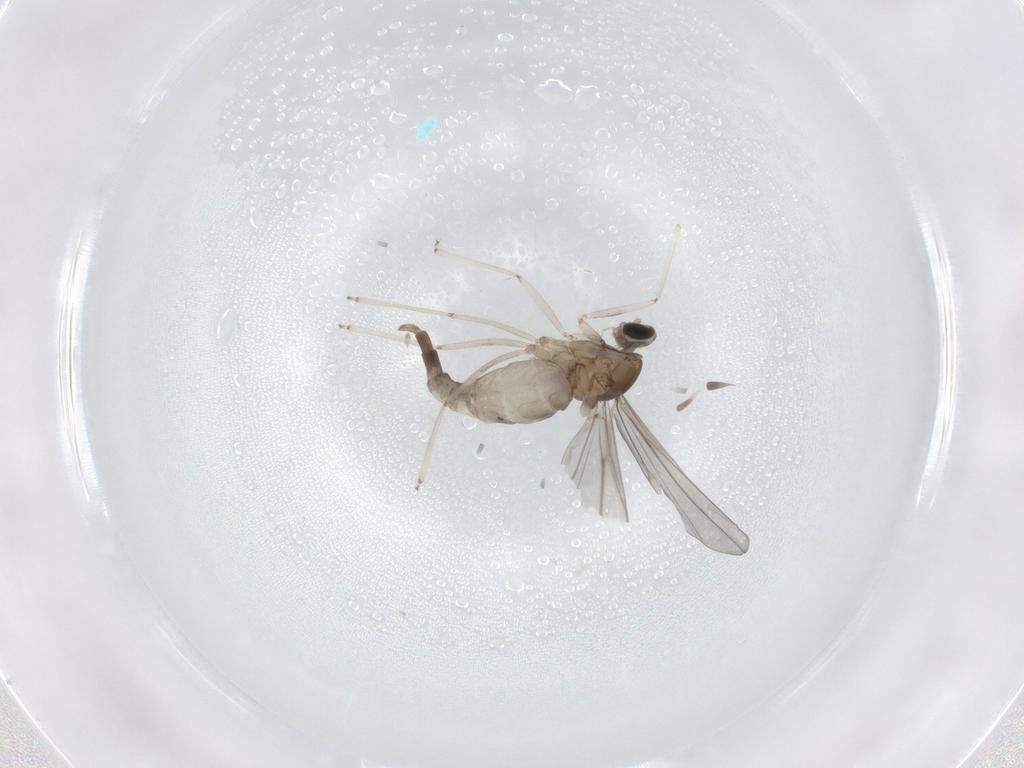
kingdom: Animalia
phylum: Arthropoda
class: Insecta
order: Diptera
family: Cecidomyiidae
